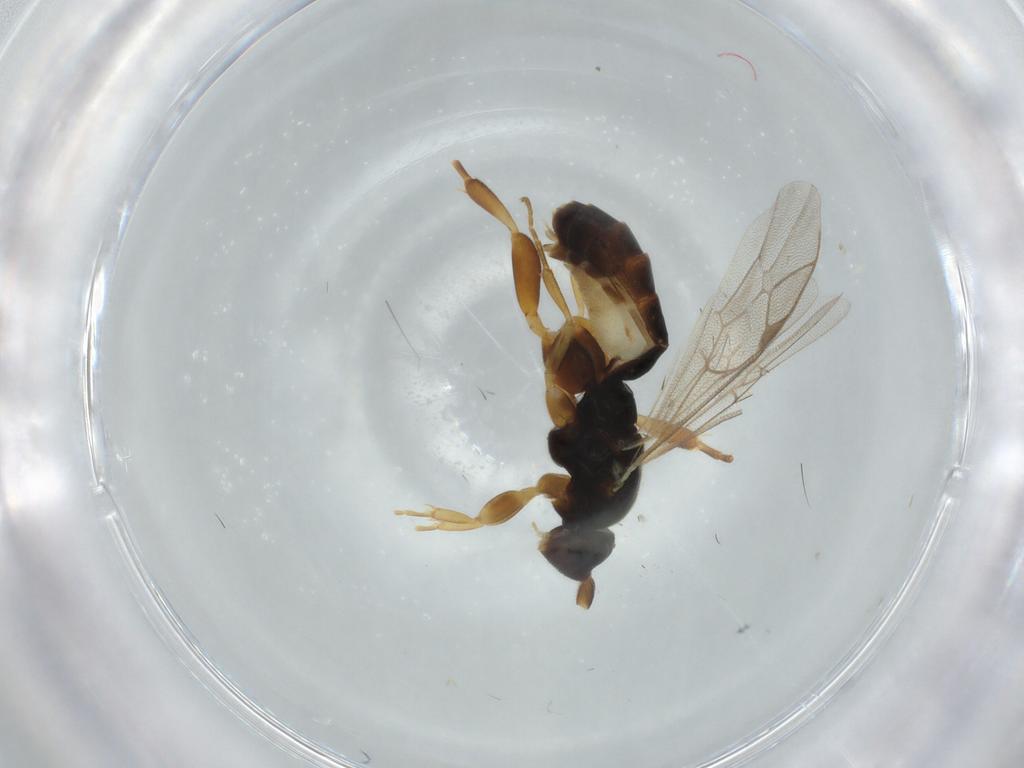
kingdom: Animalia
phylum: Arthropoda
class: Insecta
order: Hymenoptera
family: Ichneumonidae
